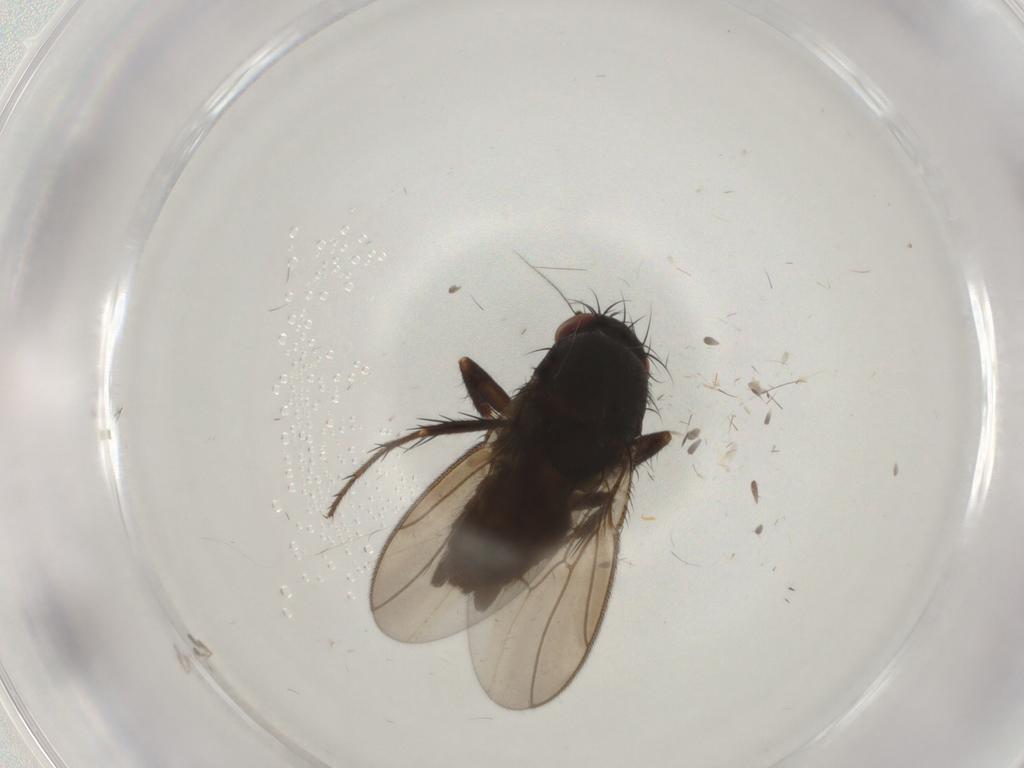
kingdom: Animalia
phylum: Arthropoda
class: Insecta
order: Diptera
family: Sphaeroceridae
